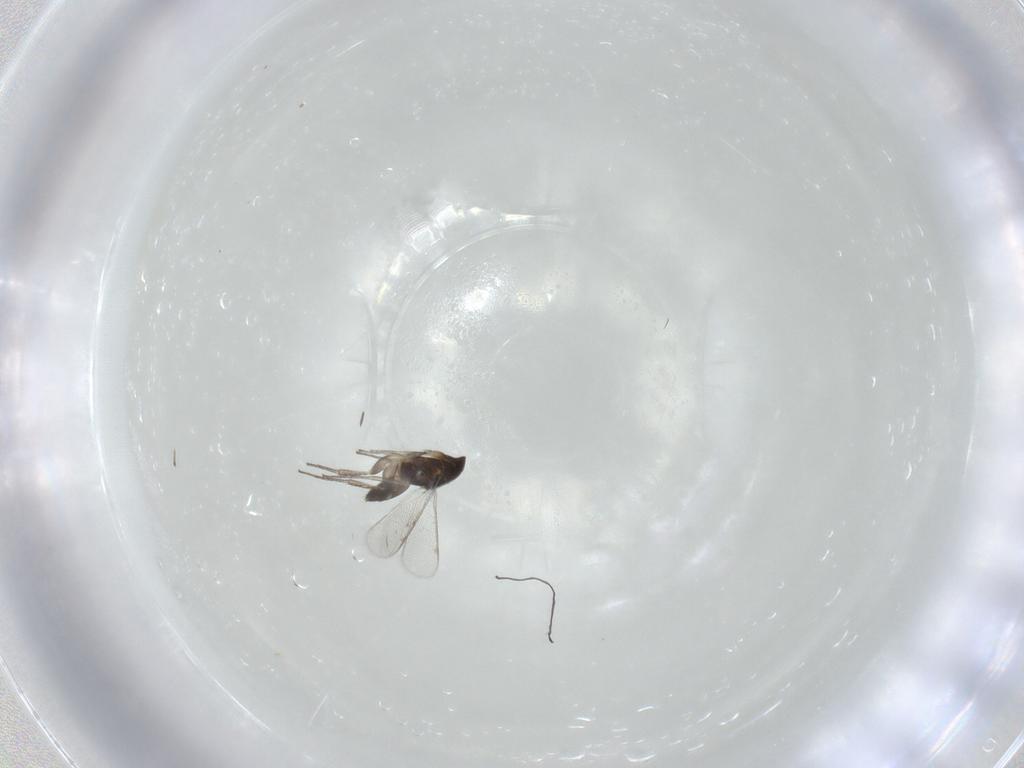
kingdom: Animalia
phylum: Arthropoda
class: Insecta
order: Hymenoptera
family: Eulophidae
